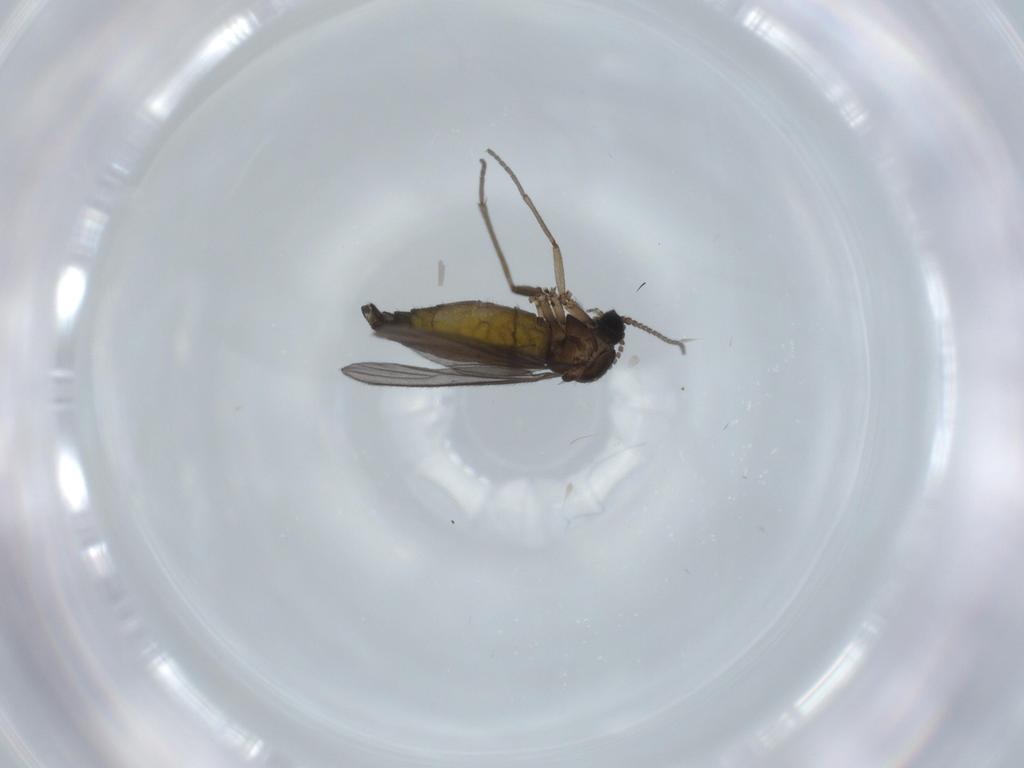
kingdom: Animalia
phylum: Arthropoda
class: Insecta
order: Diptera
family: Sciaridae
